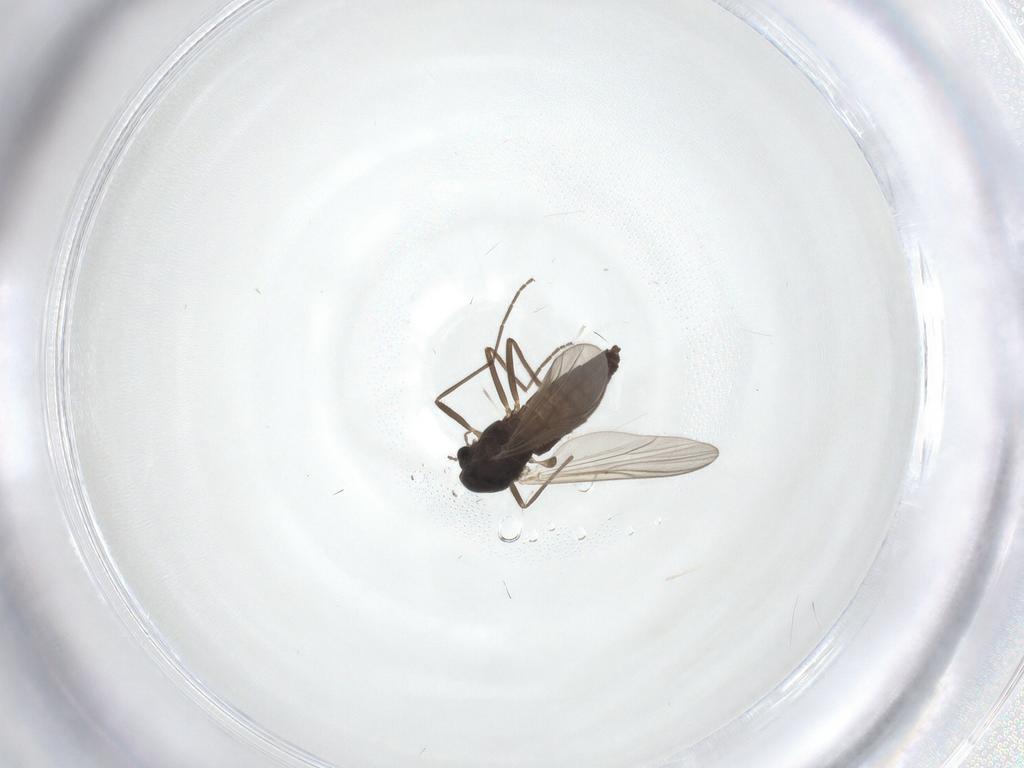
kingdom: Animalia
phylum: Arthropoda
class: Insecta
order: Diptera
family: Chironomidae
